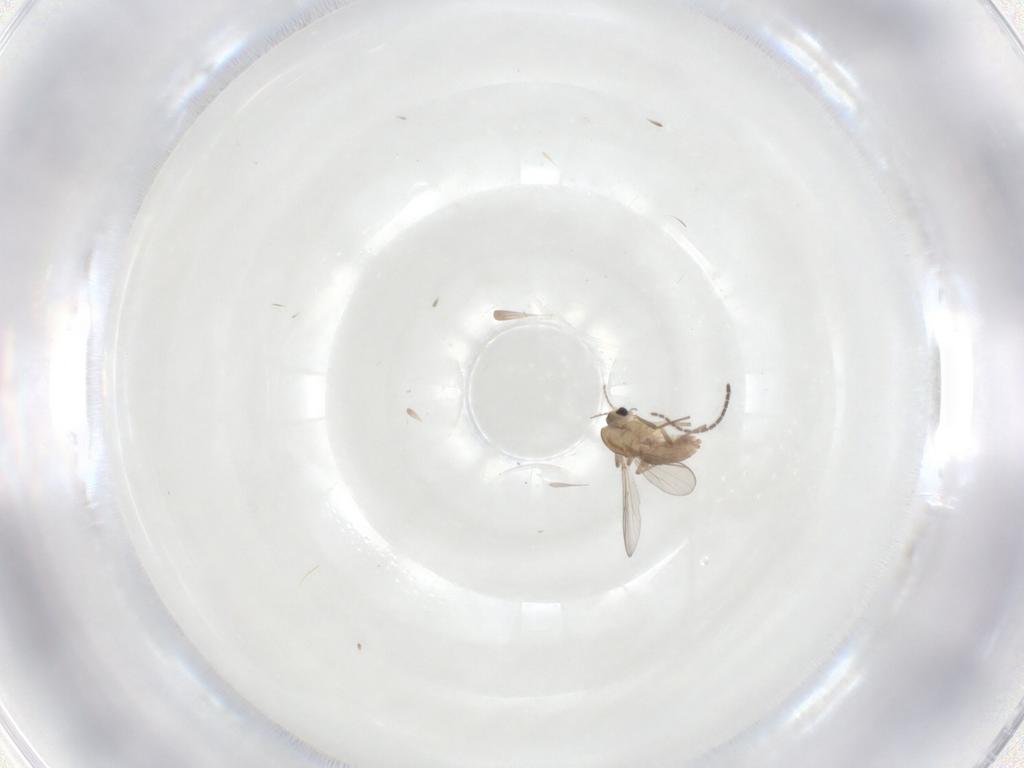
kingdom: Animalia
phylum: Arthropoda
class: Insecta
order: Diptera
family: Chironomidae
